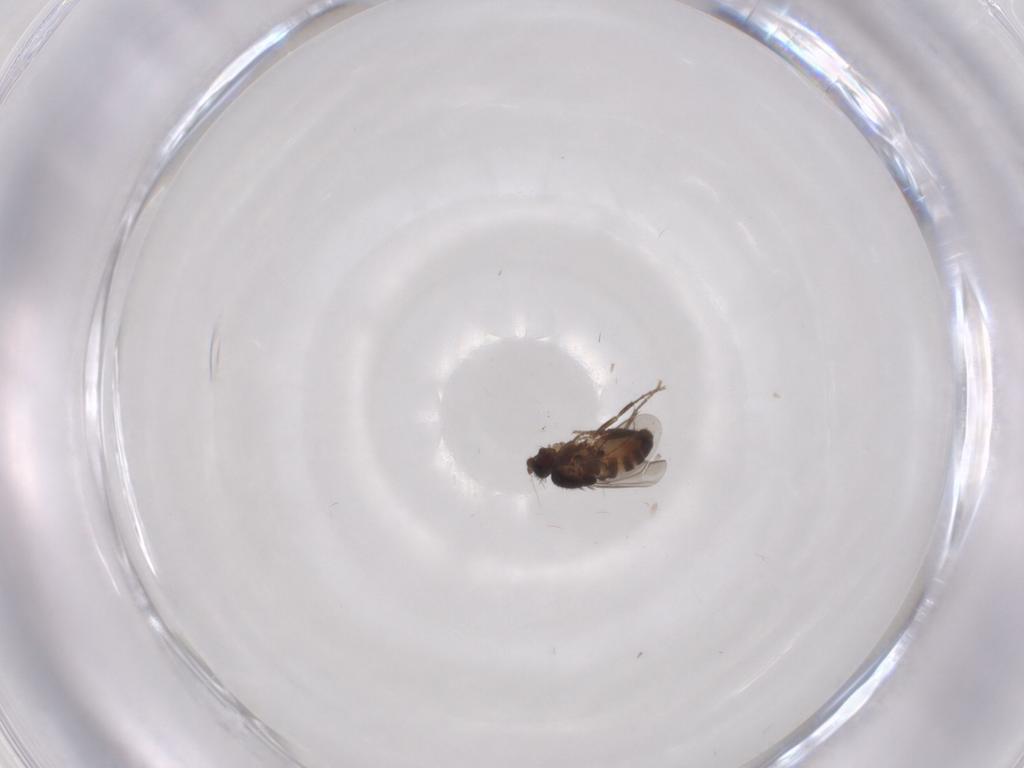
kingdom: Animalia
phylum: Arthropoda
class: Insecta
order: Diptera
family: Sphaeroceridae
